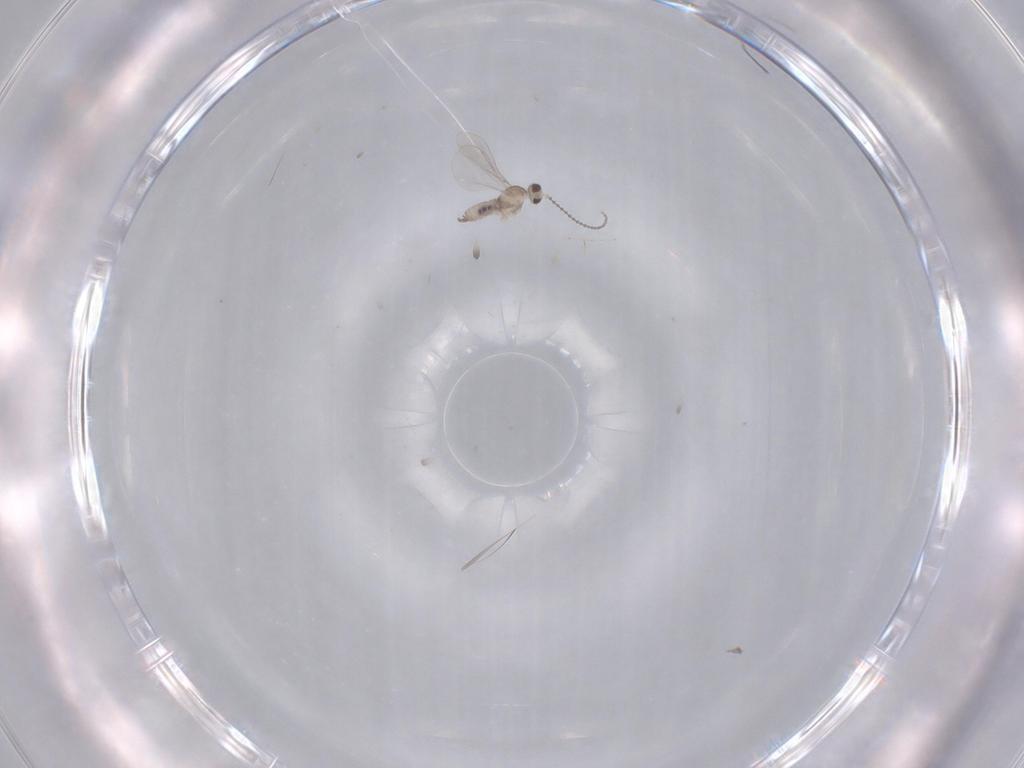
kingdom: Animalia
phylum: Arthropoda
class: Insecta
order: Diptera
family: Cecidomyiidae
